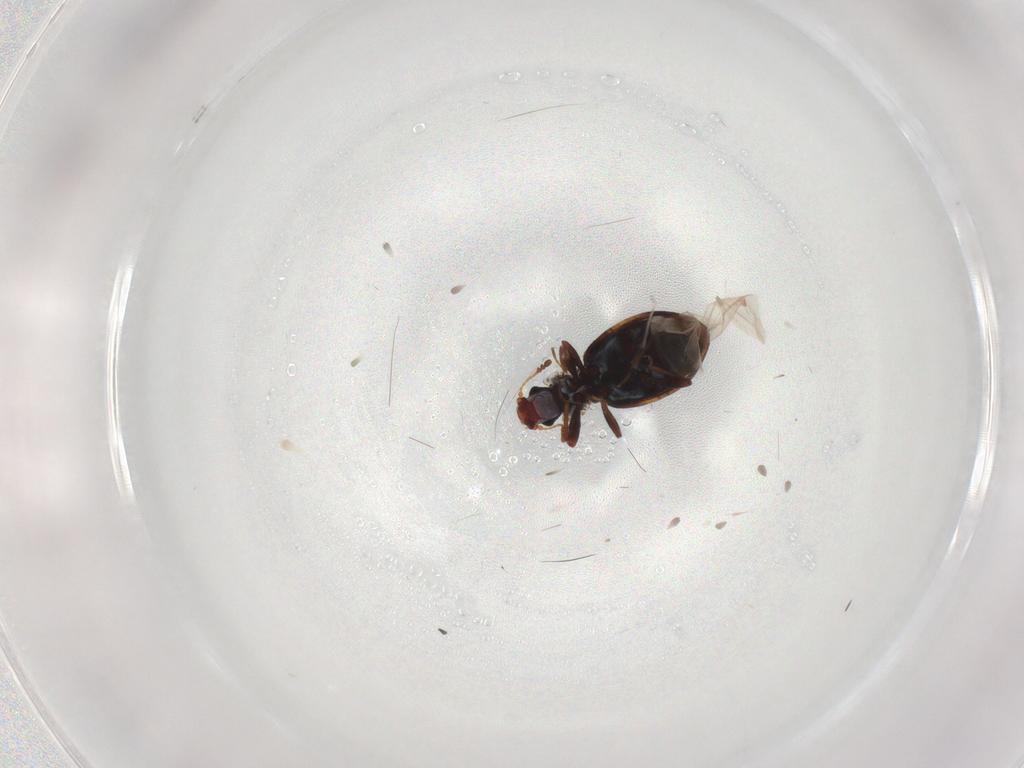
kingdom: Animalia
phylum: Arthropoda
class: Insecta
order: Coleoptera
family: Latridiidae
